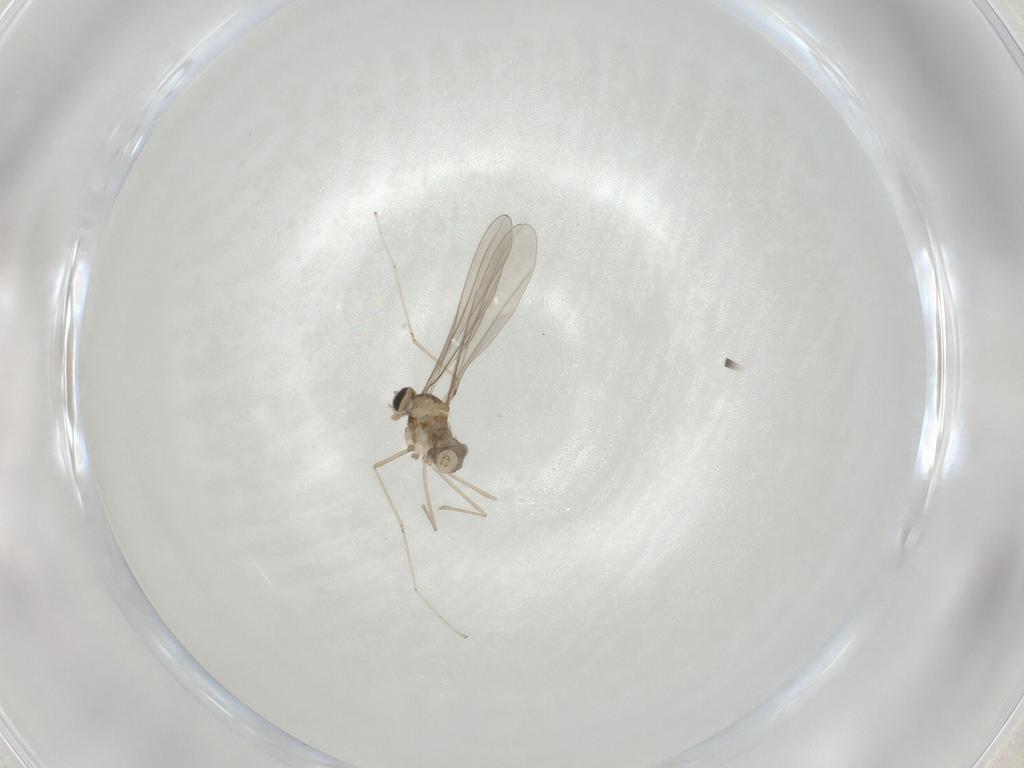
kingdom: Animalia
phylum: Arthropoda
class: Insecta
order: Diptera
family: Cecidomyiidae
